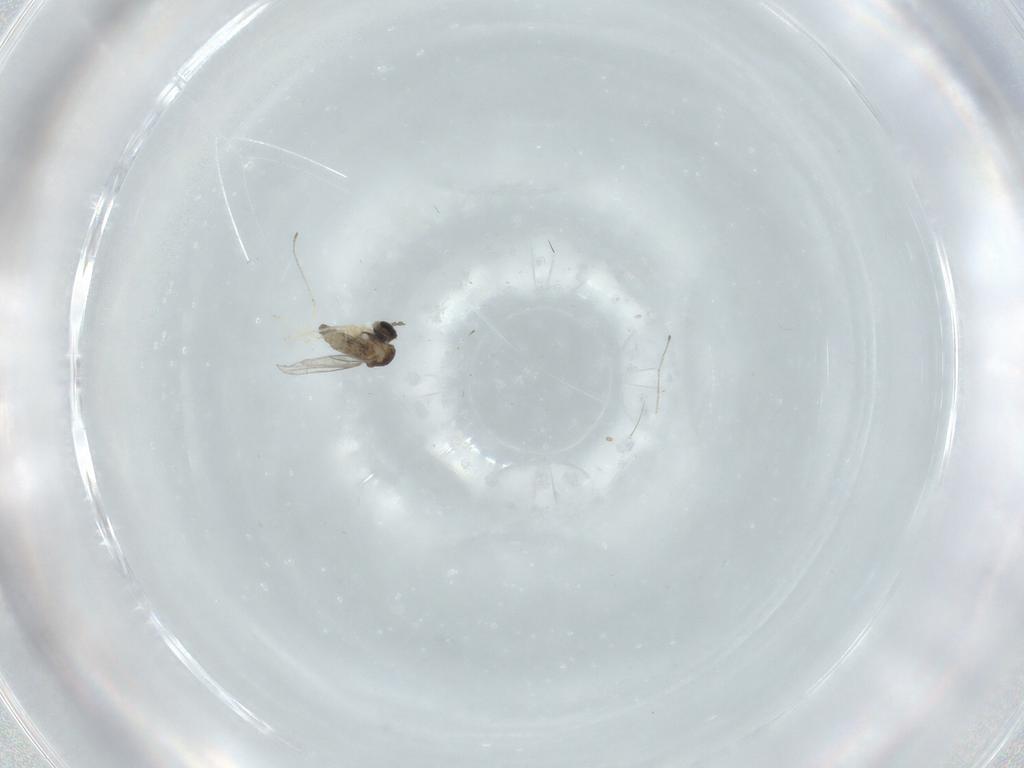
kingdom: Animalia
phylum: Arthropoda
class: Insecta
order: Diptera
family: Cecidomyiidae
